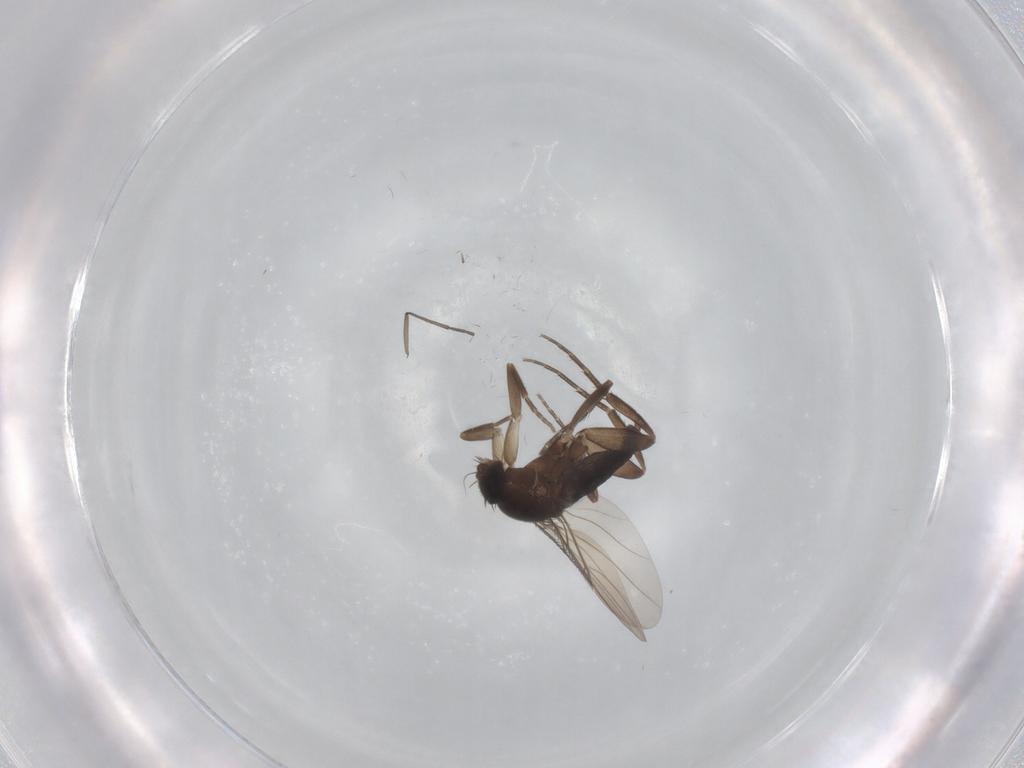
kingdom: Animalia
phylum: Arthropoda
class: Insecta
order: Diptera
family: Phoridae
